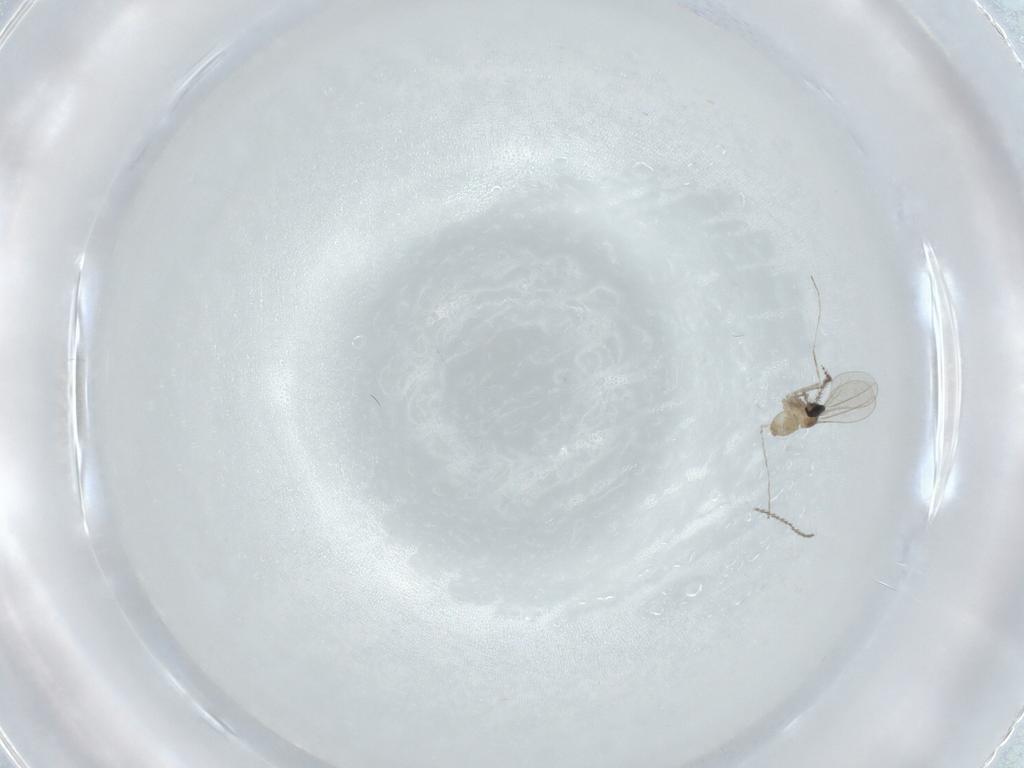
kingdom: Animalia
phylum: Arthropoda
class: Insecta
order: Diptera
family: Cecidomyiidae
